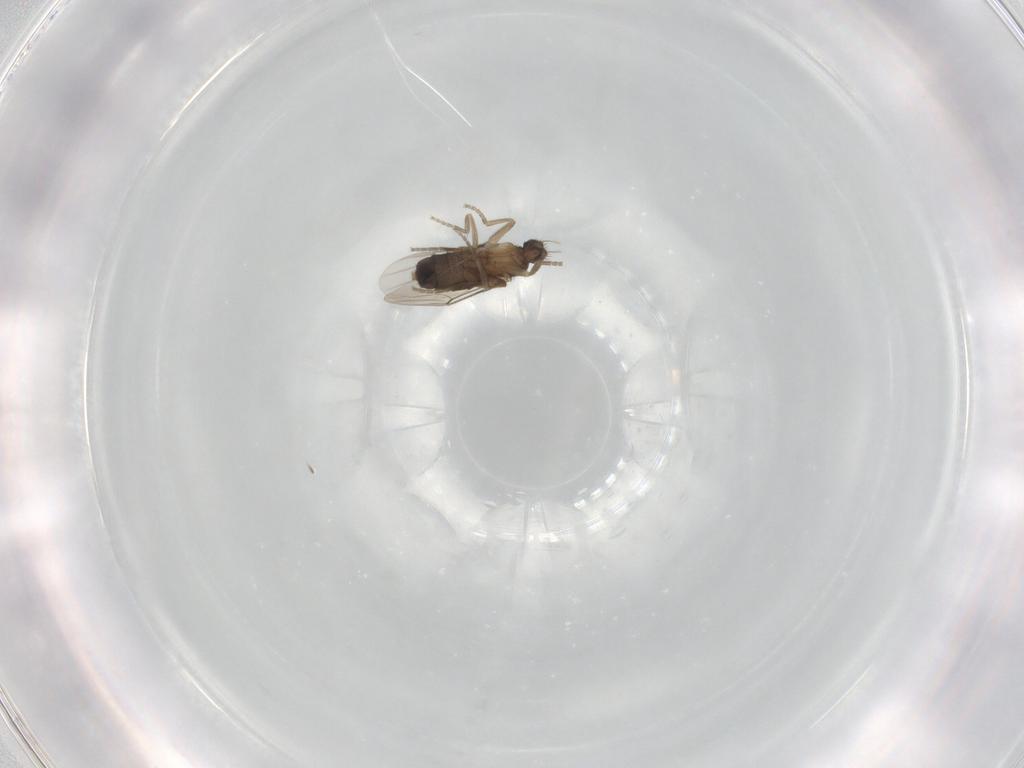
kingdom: Animalia
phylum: Arthropoda
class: Insecta
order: Diptera
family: Phoridae
